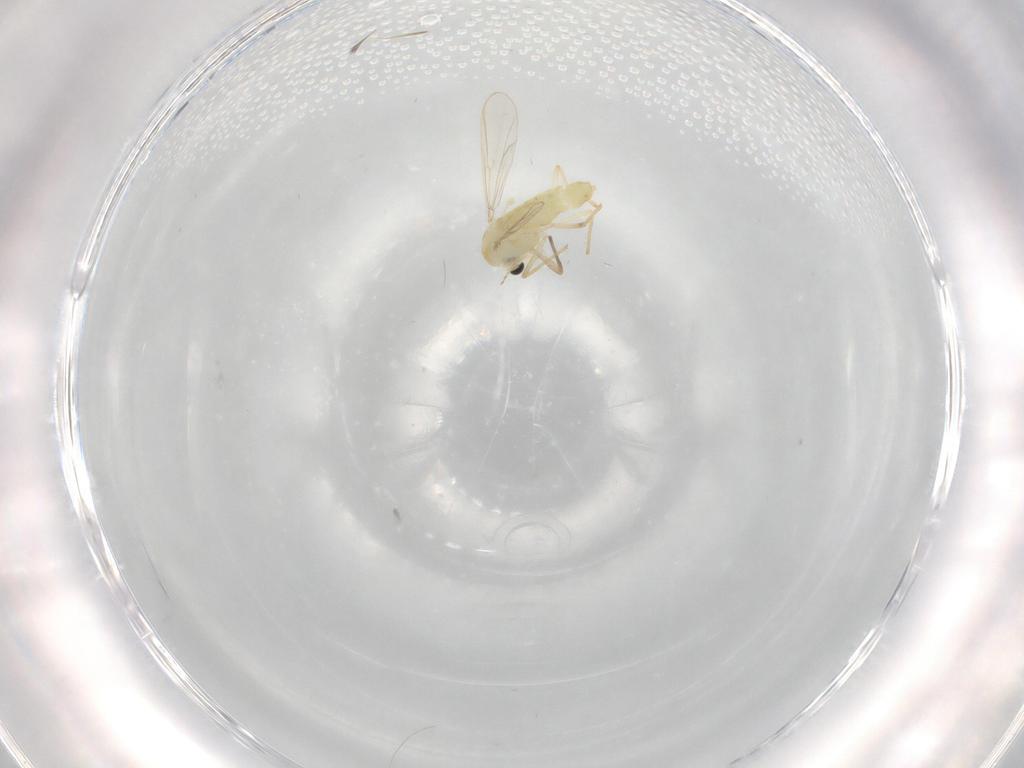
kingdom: Animalia
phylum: Arthropoda
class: Insecta
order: Diptera
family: Chironomidae
